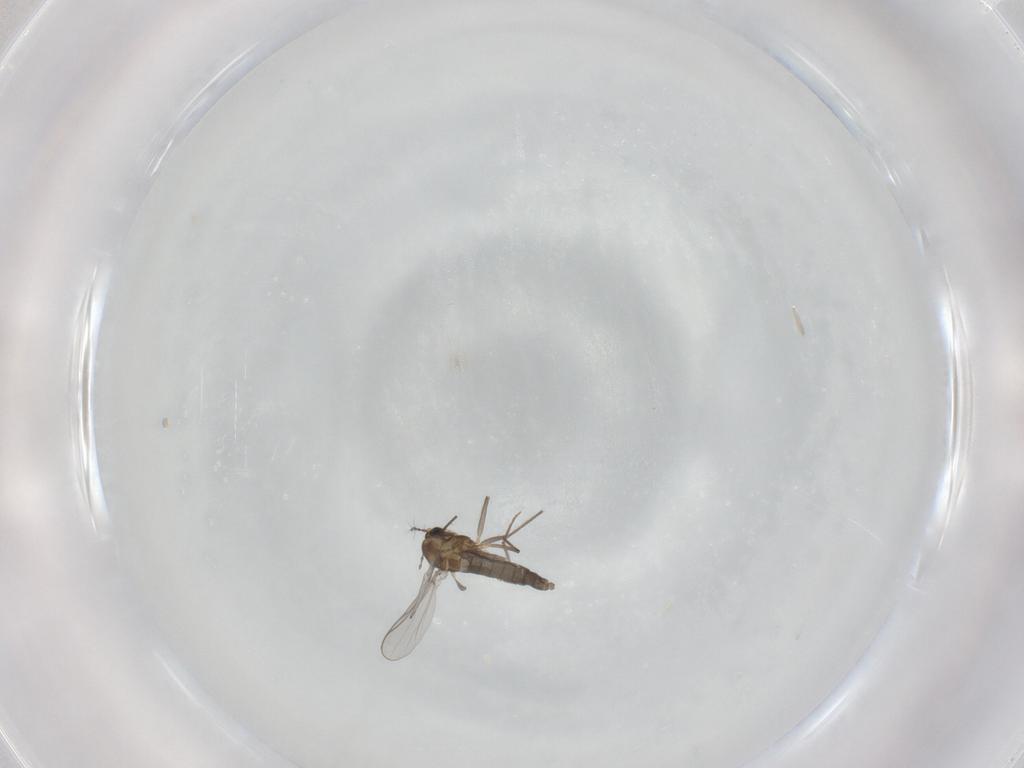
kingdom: Animalia
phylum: Arthropoda
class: Insecta
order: Diptera
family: Chironomidae
